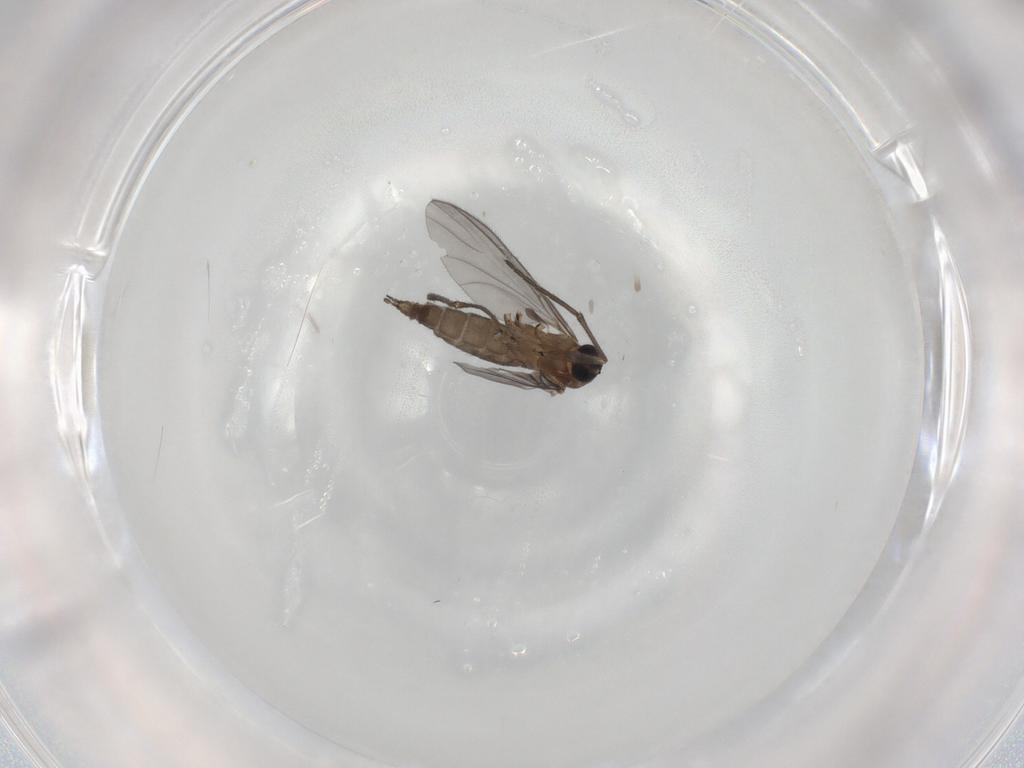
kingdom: Animalia
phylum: Arthropoda
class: Insecta
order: Diptera
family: Sciaridae
